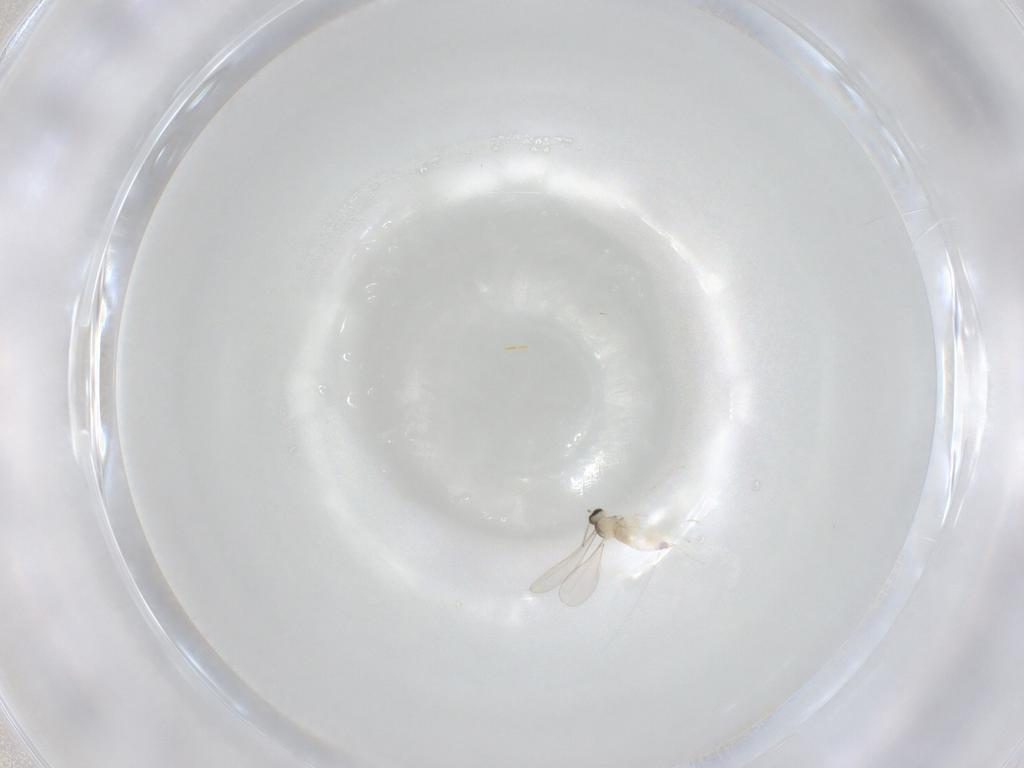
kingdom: Animalia
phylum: Arthropoda
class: Insecta
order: Diptera
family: Cecidomyiidae
